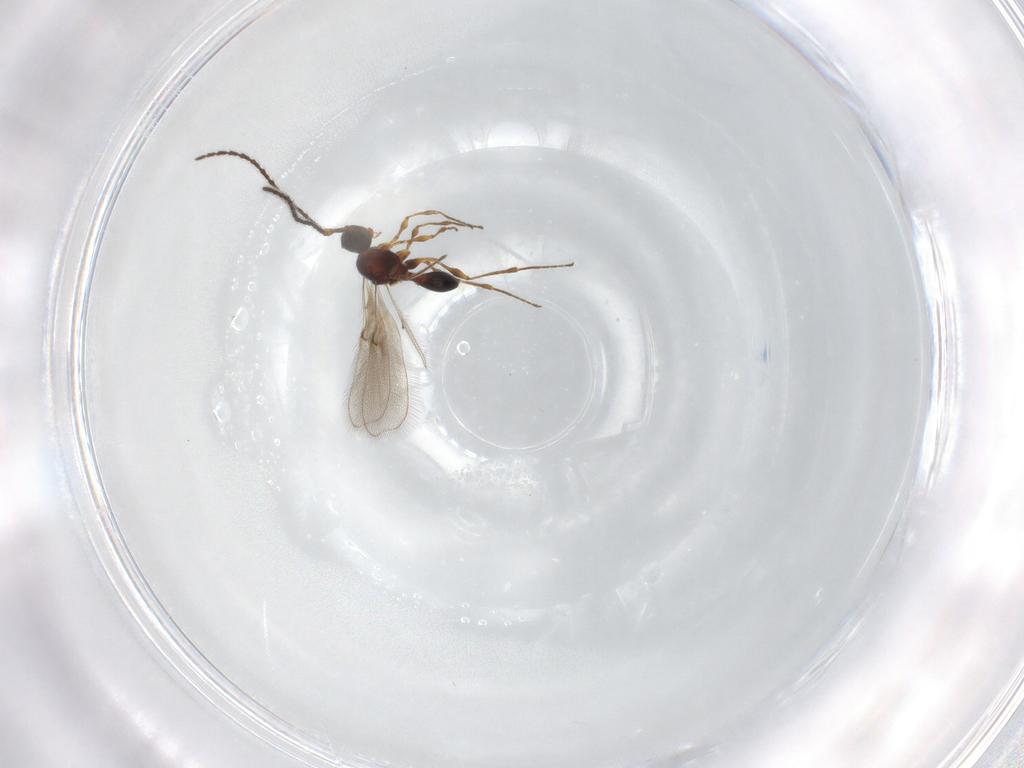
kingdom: Animalia
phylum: Arthropoda
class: Insecta
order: Hymenoptera
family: Diapriidae
